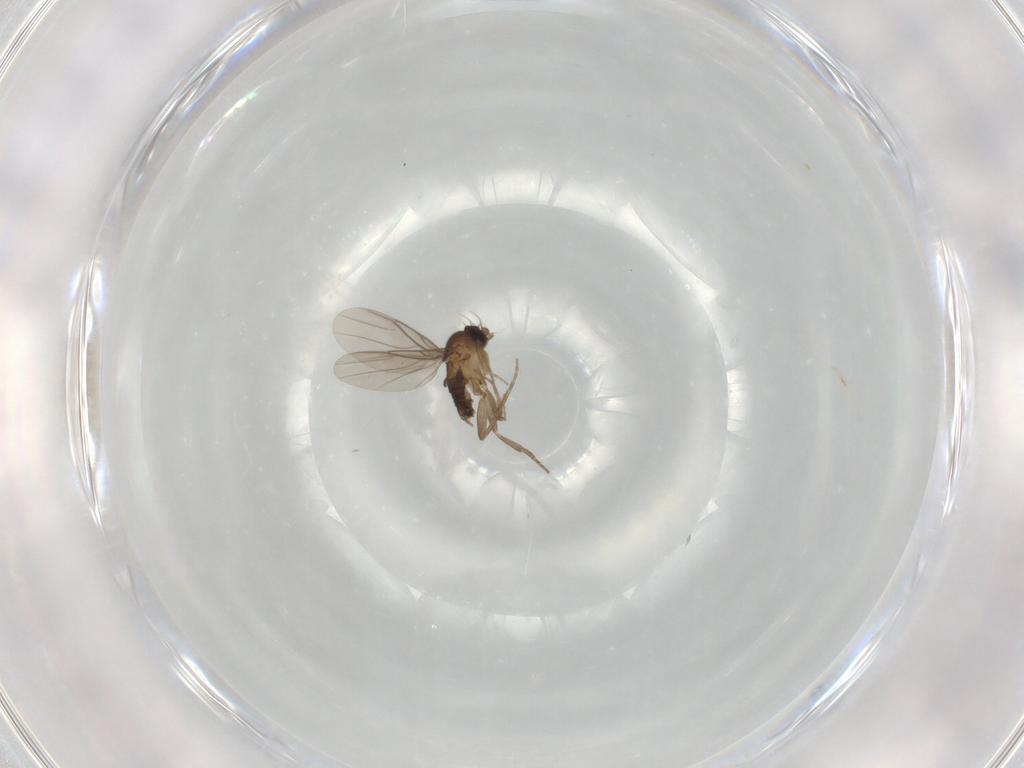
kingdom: Animalia
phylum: Arthropoda
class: Insecta
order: Diptera
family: Phoridae
